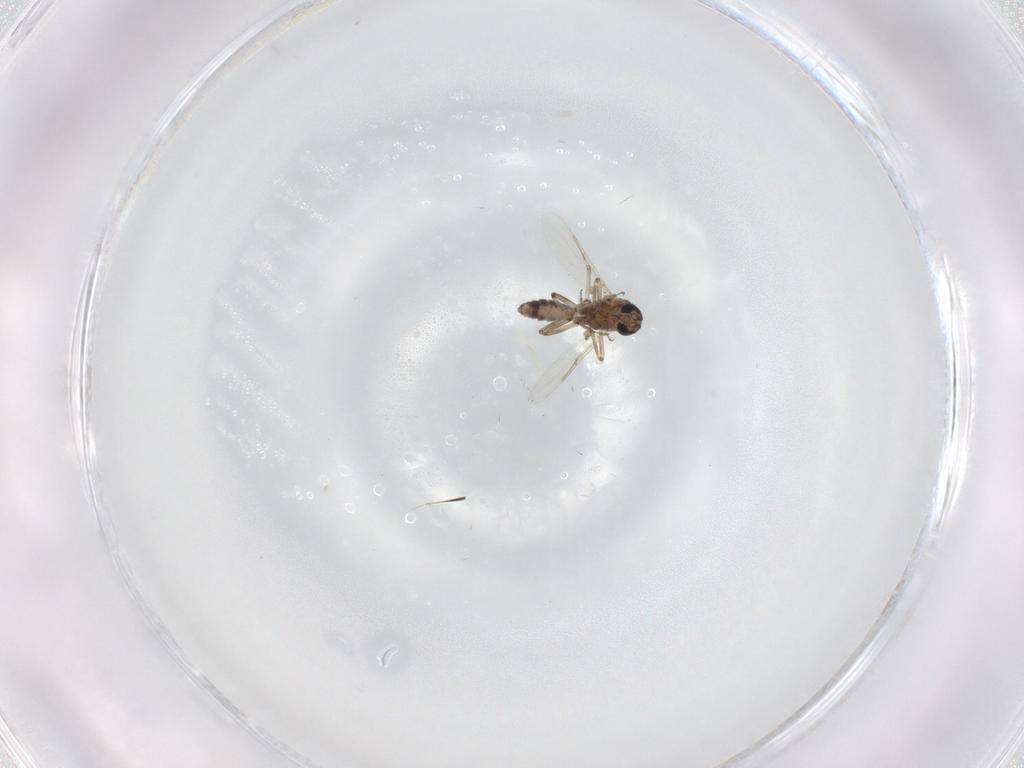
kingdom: Animalia
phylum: Arthropoda
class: Insecta
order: Diptera
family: Ceratopogonidae
